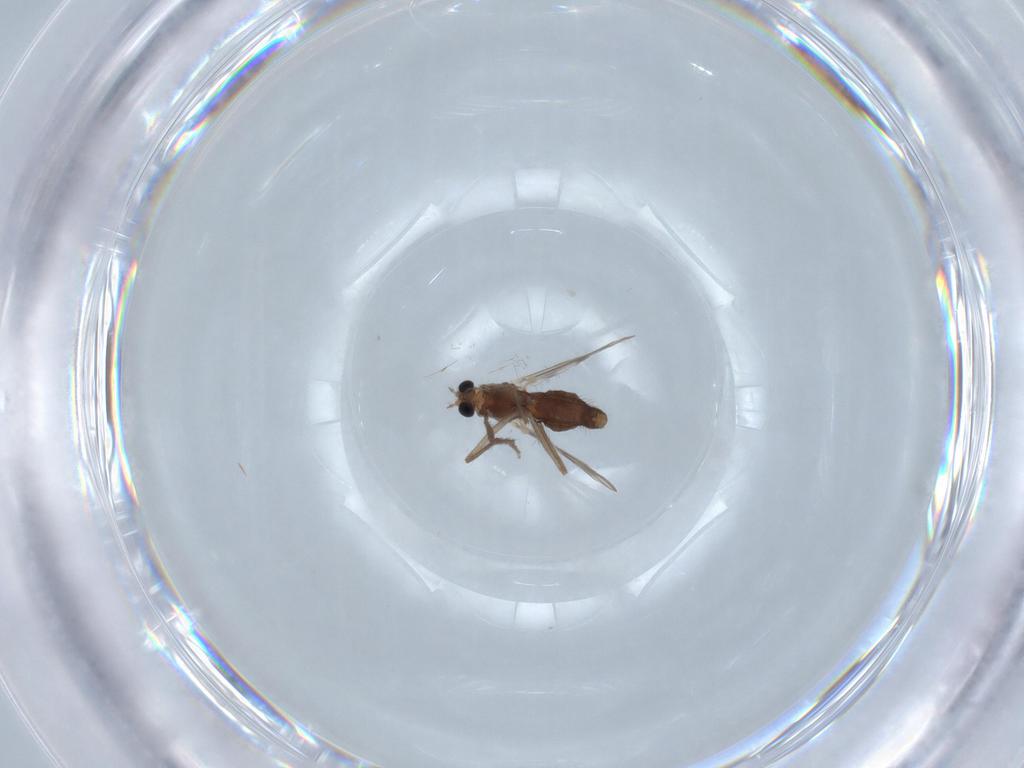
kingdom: Animalia
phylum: Arthropoda
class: Insecta
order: Diptera
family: Chironomidae
